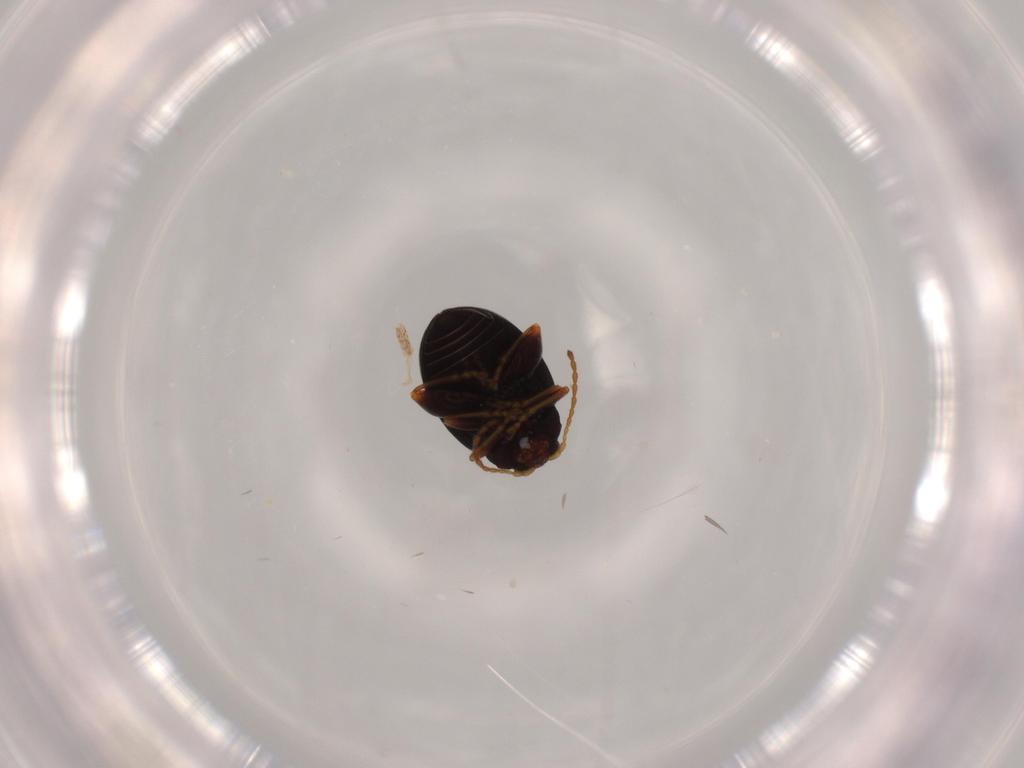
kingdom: Animalia
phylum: Arthropoda
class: Insecta
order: Coleoptera
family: Chrysomelidae
